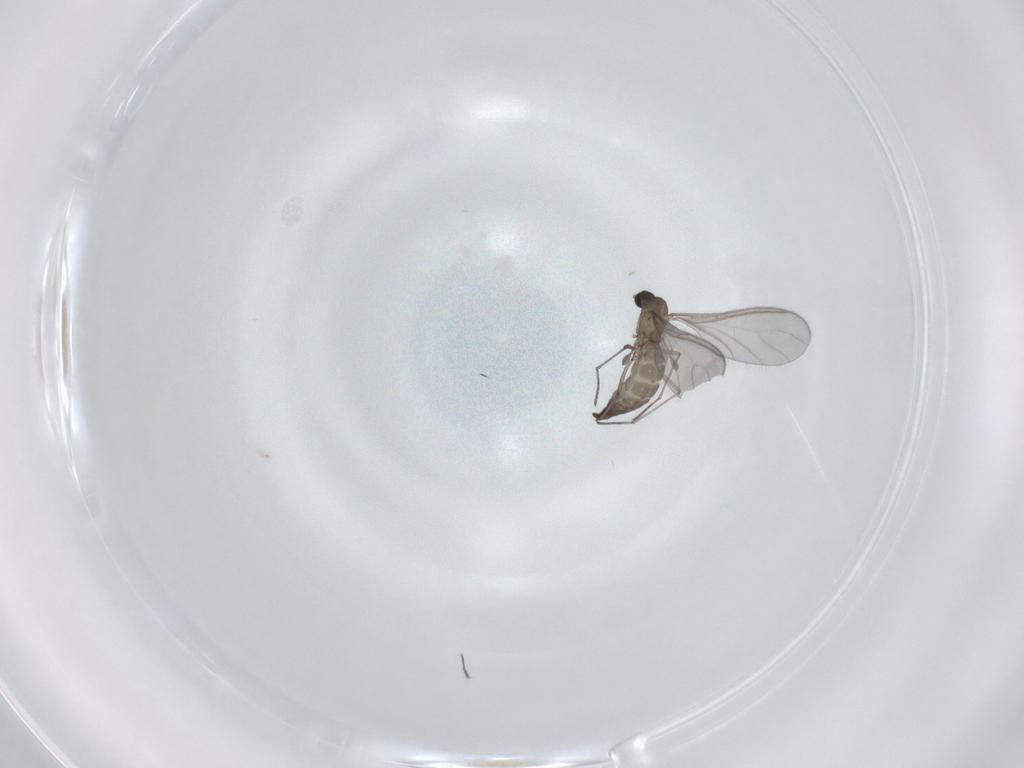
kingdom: Animalia
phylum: Arthropoda
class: Insecta
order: Diptera
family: Sciaridae
